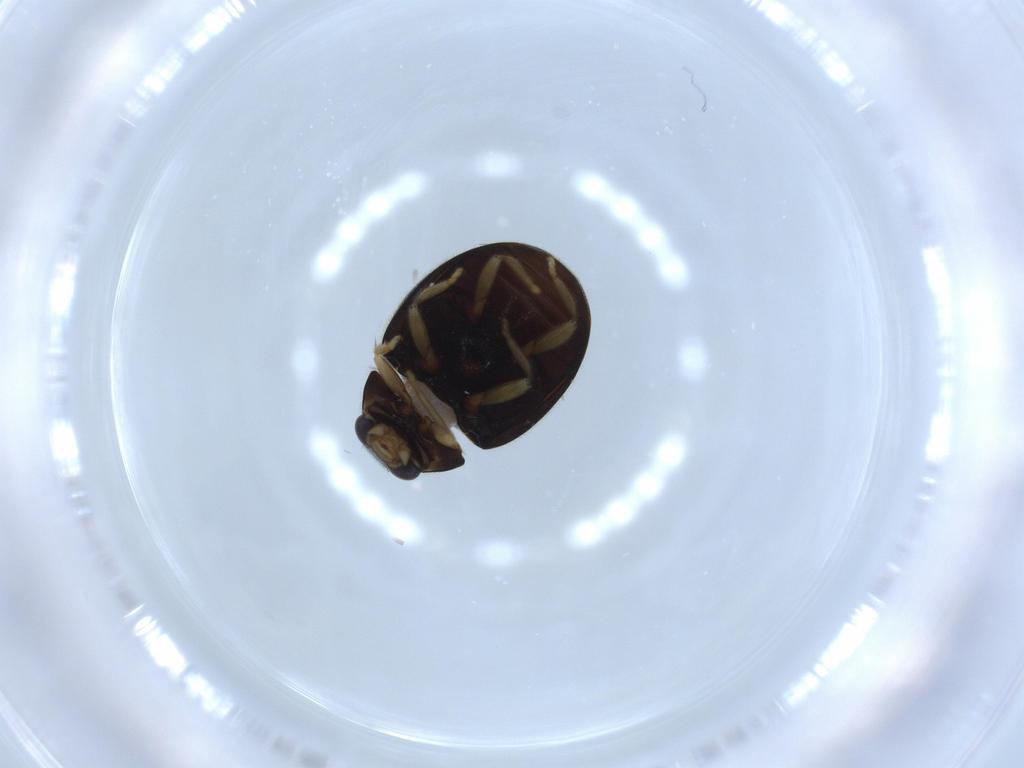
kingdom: Animalia
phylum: Arthropoda
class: Insecta
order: Coleoptera
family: Coccinellidae
